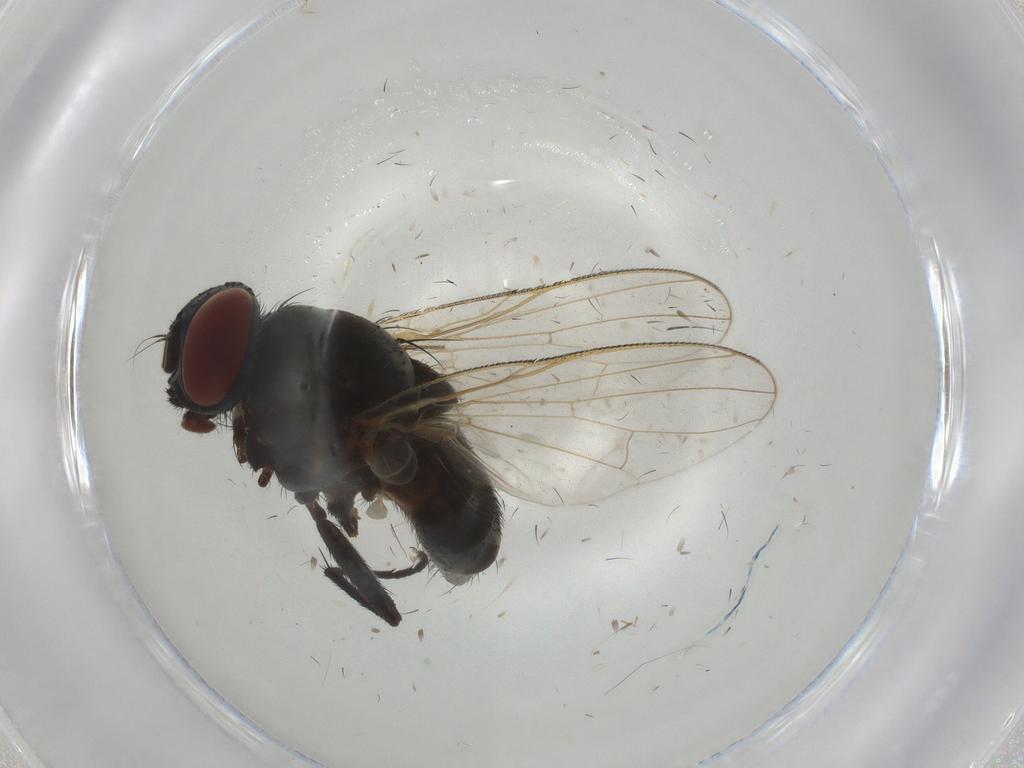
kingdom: Animalia
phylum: Arthropoda
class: Insecta
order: Diptera
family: Muscidae
